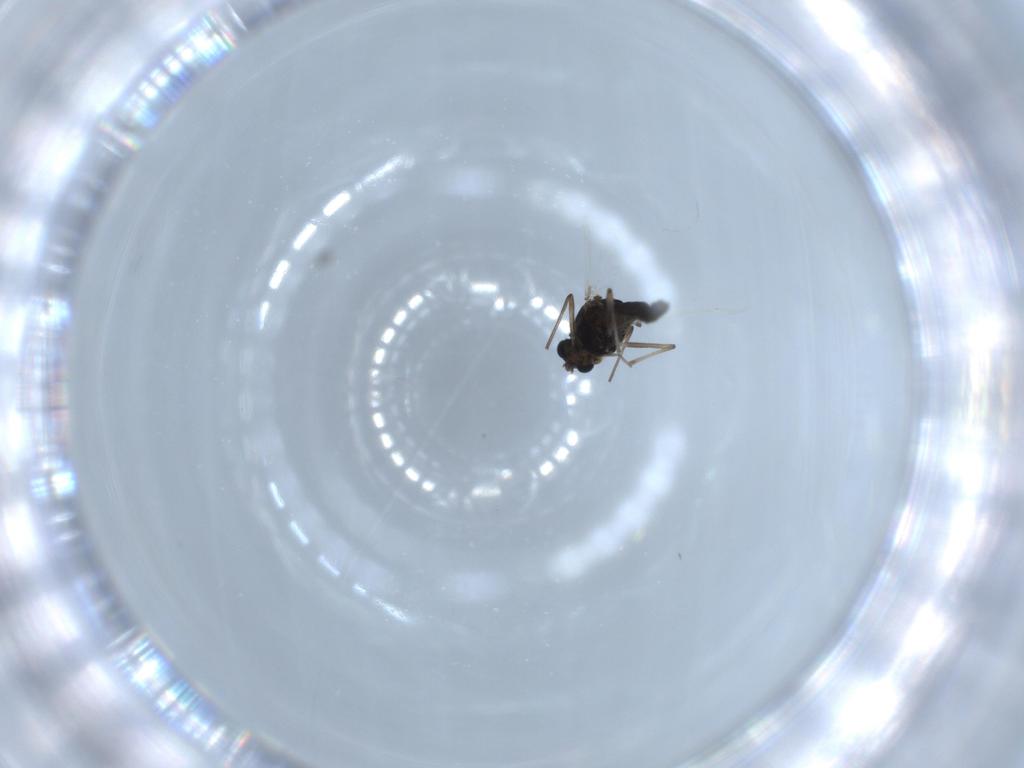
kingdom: Animalia
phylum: Arthropoda
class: Insecta
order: Diptera
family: Chironomidae
